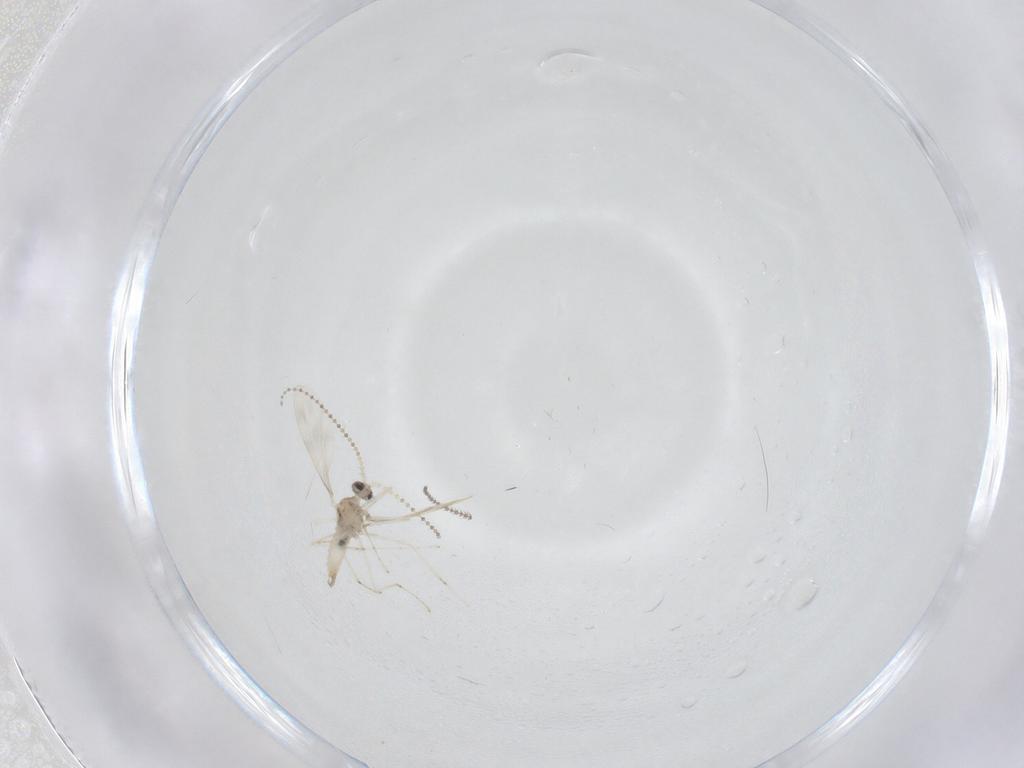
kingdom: Animalia
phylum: Arthropoda
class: Insecta
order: Diptera
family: Cecidomyiidae
